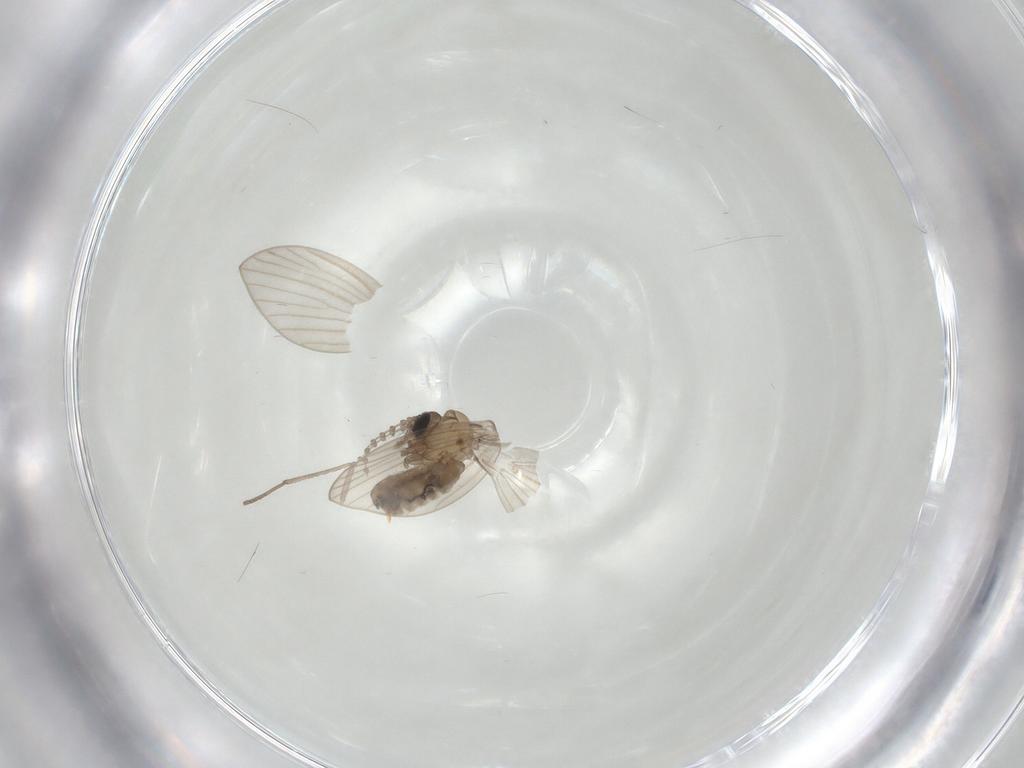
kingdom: Animalia
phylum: Arthropoda
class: Insecta
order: Diptera
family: Psychodidae
